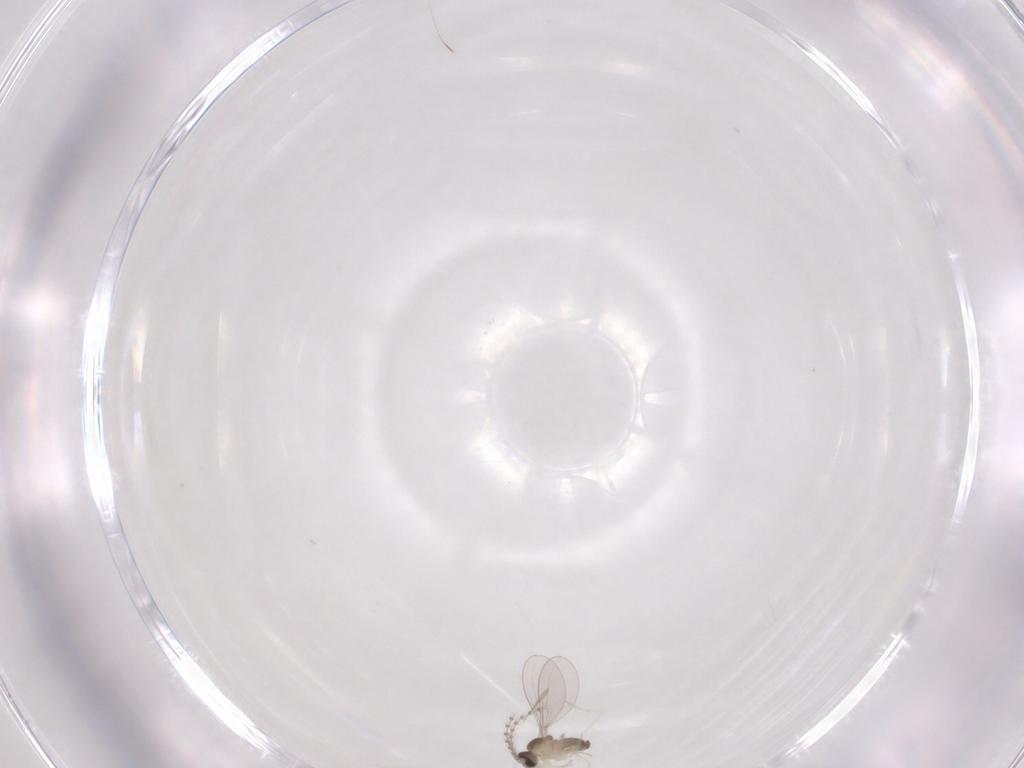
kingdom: Animalia
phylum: Arthropoda
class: Insecta
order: Diptera
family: Cecidomyiidae
